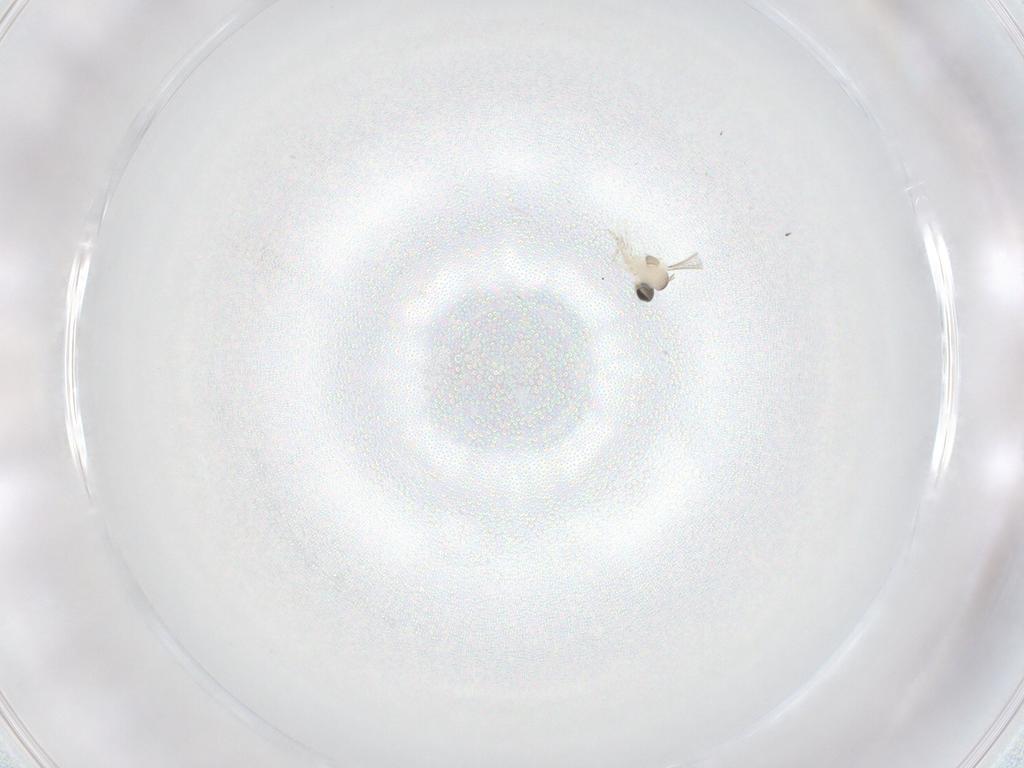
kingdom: Animalia
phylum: Arthropoda
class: Insecta
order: Diptera
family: Cecidomyiidae
